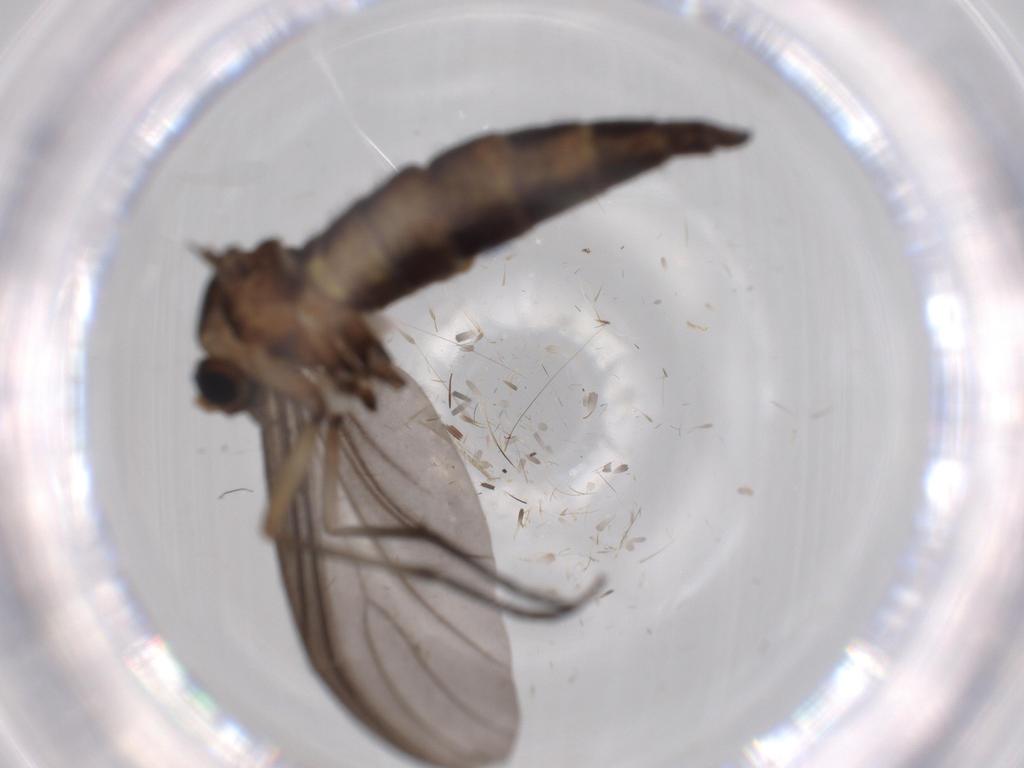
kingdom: Animalia
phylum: Arthropoda
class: Insecta
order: Diptera
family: Sciaridae
